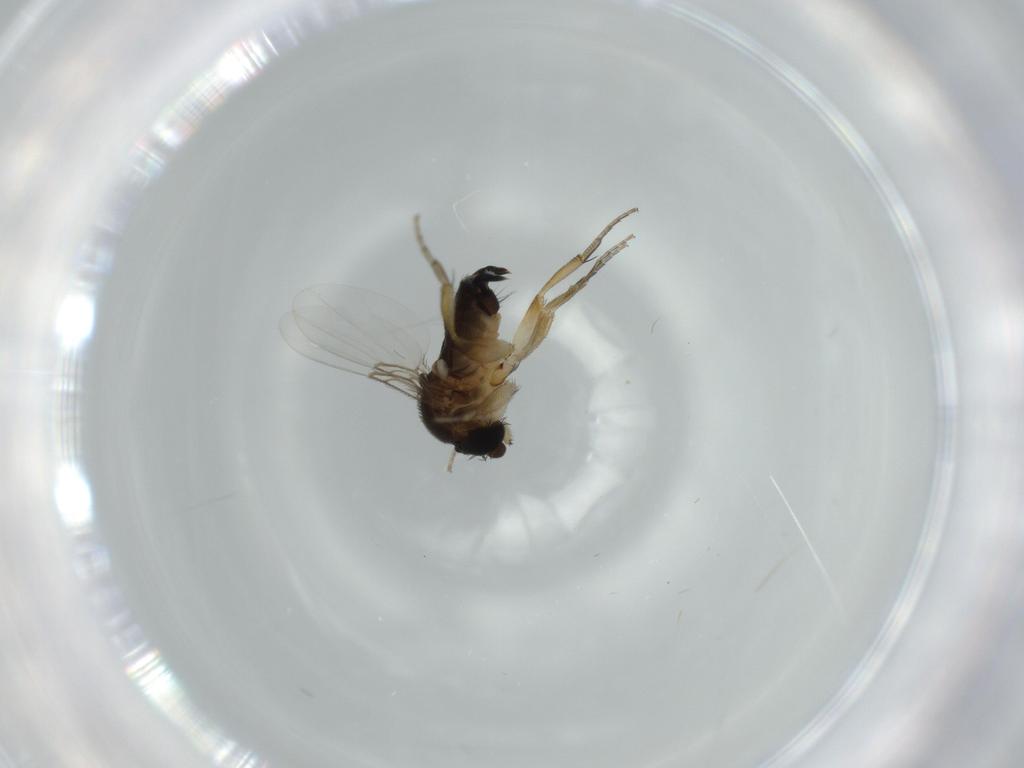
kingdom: Animalia
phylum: Arthropoda
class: Insecta
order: Diptera
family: Phoridae
